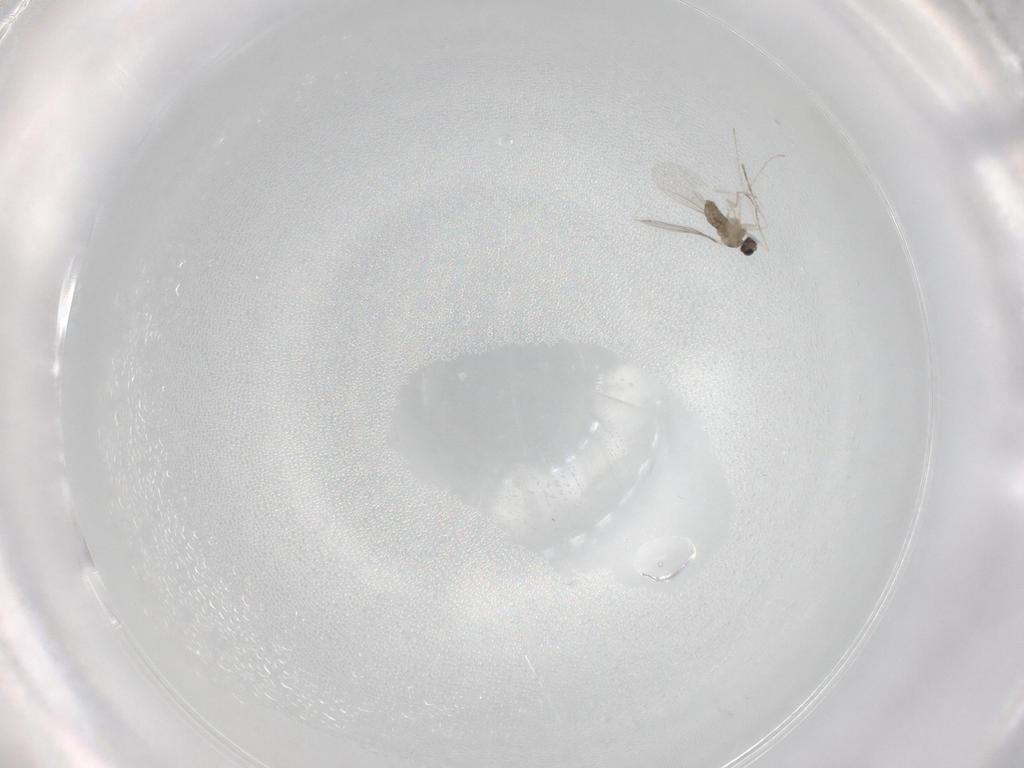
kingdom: Animalia
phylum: Arthropoda
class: Insecta
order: Diptera
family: Cecidomyiidae
